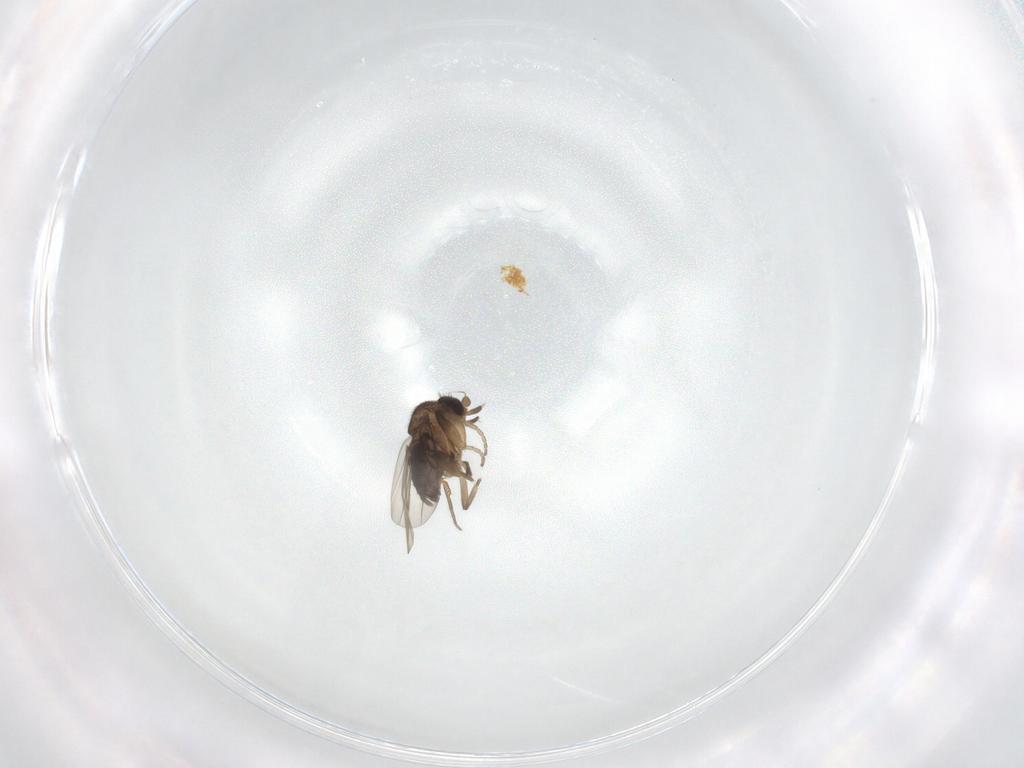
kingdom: Animalia
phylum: Arthropoda
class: Insecta
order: Diptera
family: Phoridae
